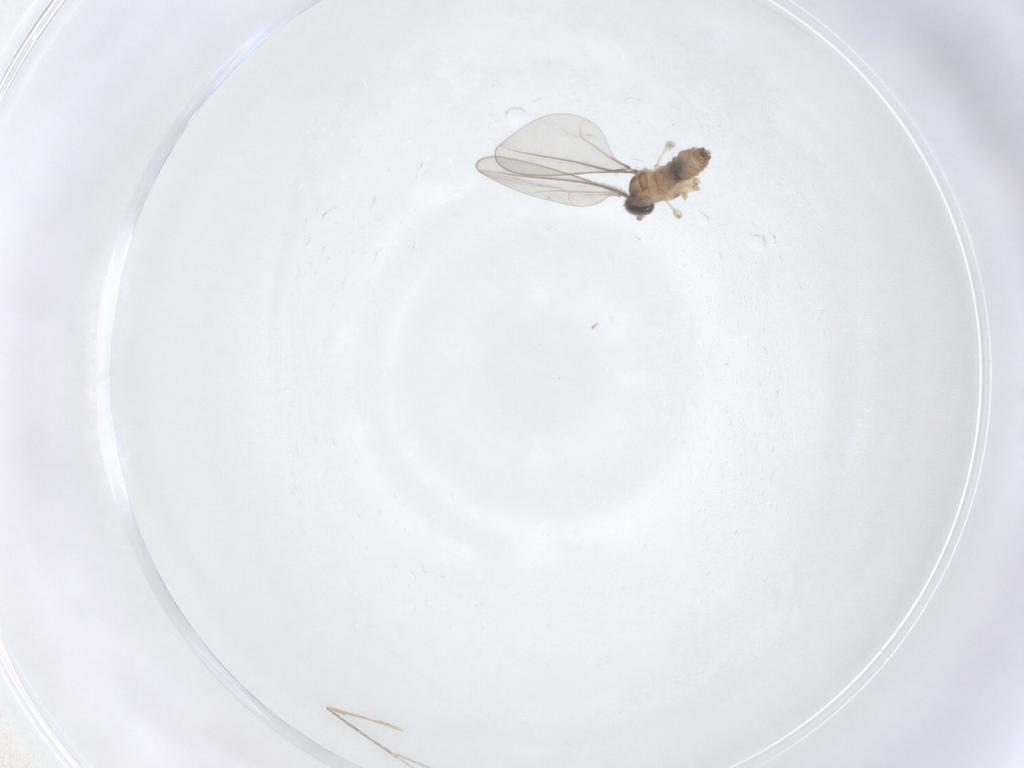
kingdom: Animalia
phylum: Arthropoda
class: Insecta
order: Diptera
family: Cecidomyiidae
